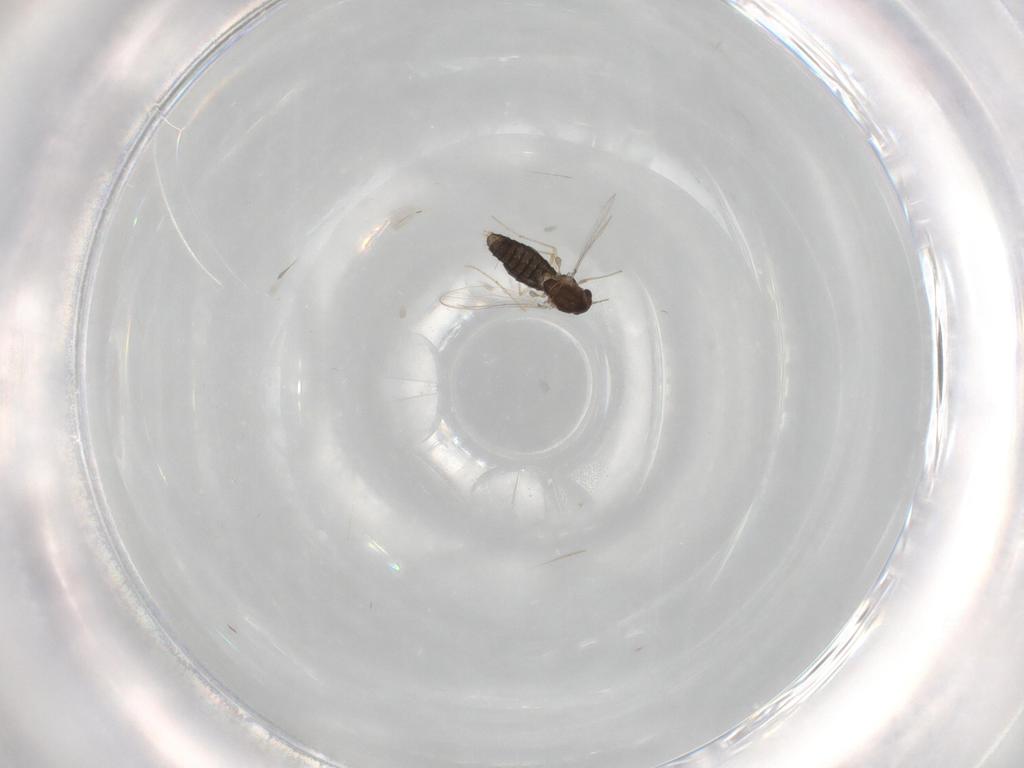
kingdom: Animalia
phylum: Arthropoda
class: Insecta
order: Diptera
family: Chironomidae
